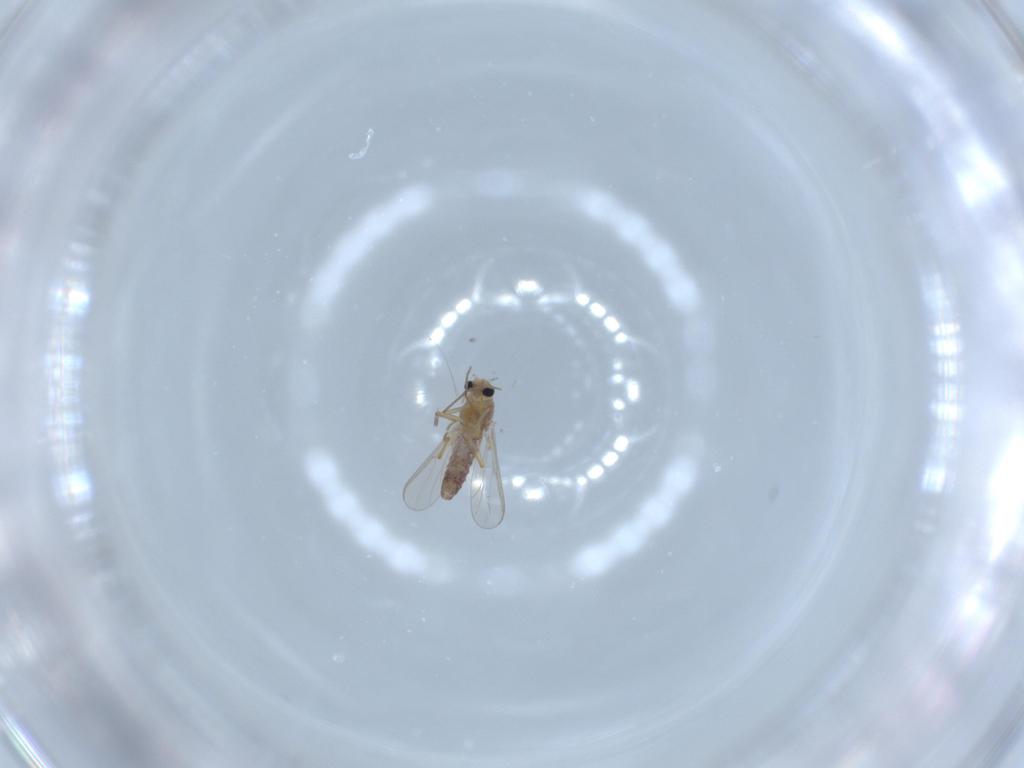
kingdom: Animalia
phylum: Arthropoda
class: Insecta
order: Diptera
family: Chironomidae
